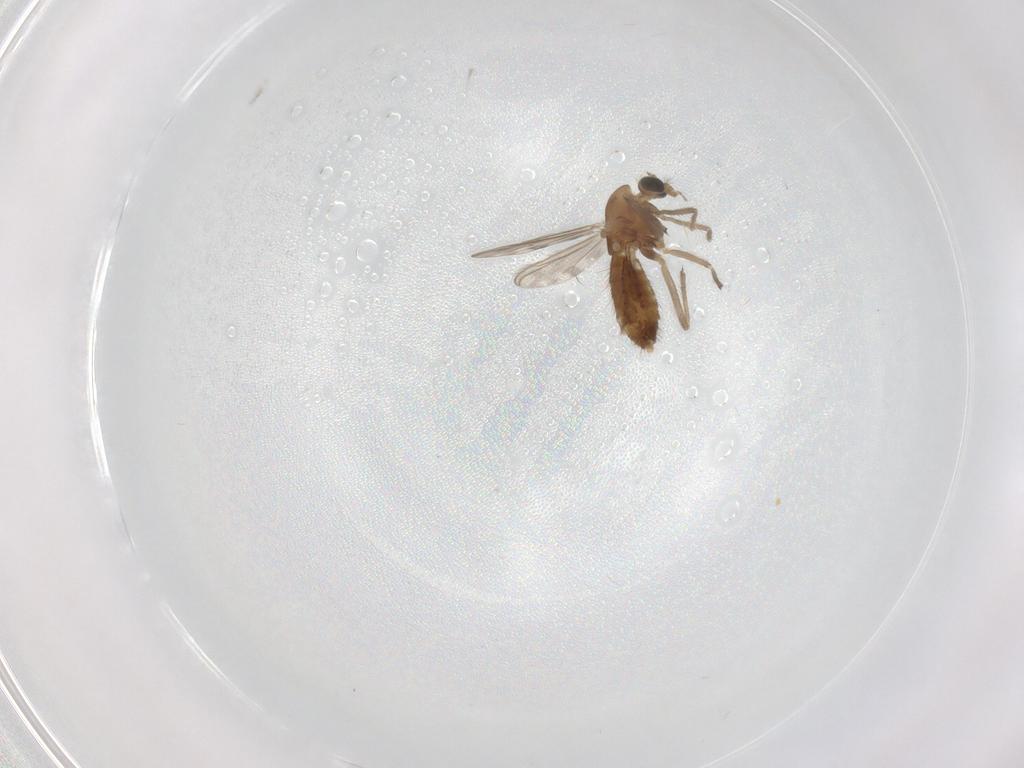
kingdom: Animalia
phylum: Arthropoda
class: Insecta
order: Diptera
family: Chironomidae
